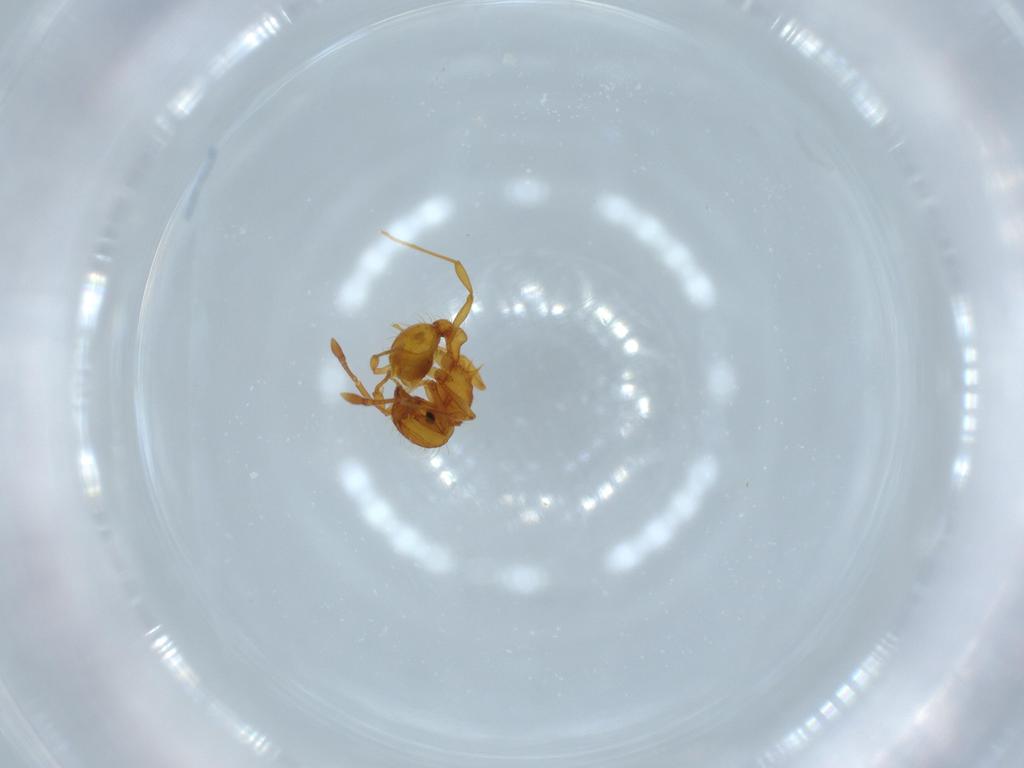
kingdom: Animalia
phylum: Arthropoda
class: Insecta
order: Hymenoptera
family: Formicidae
